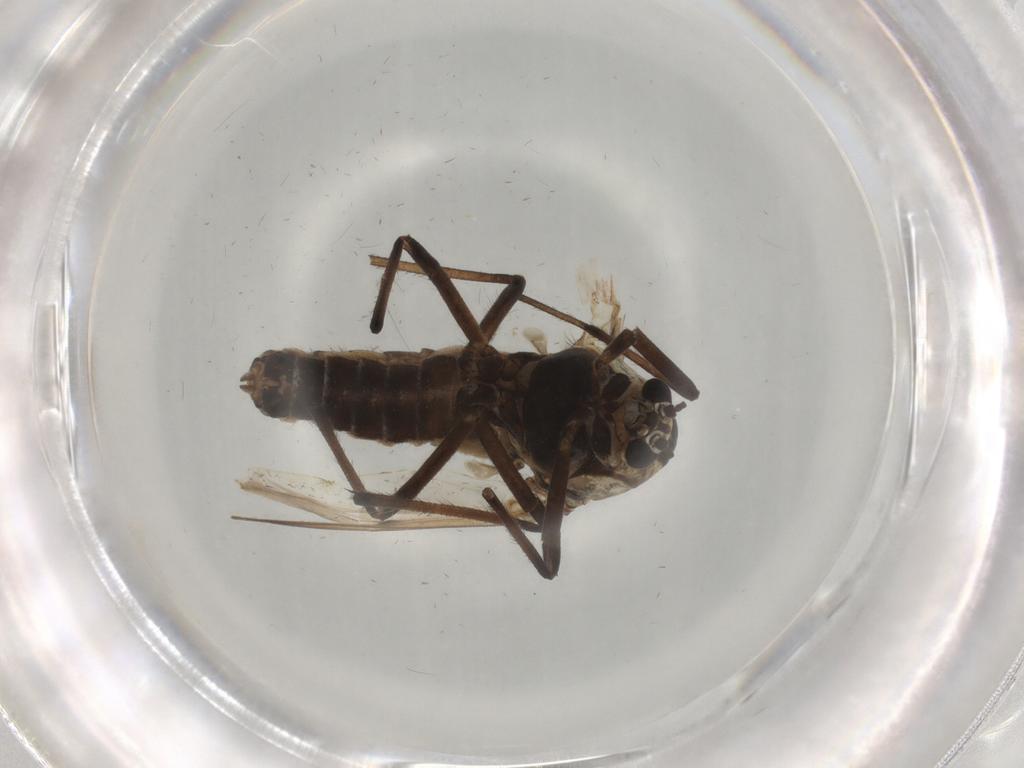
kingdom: Animalia
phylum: Arthropoda
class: Insecta
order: Diptera
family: Chironomidae
